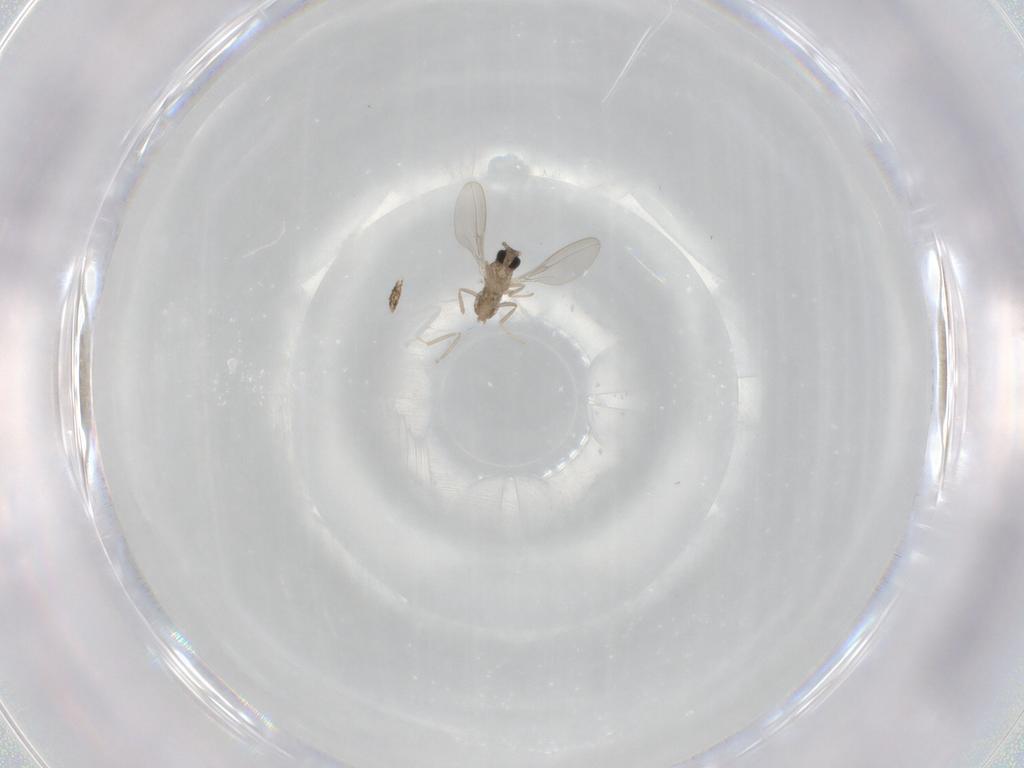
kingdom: Animalia
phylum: Arthropoda
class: Insecta
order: Diptera
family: Cecidomyiidae
